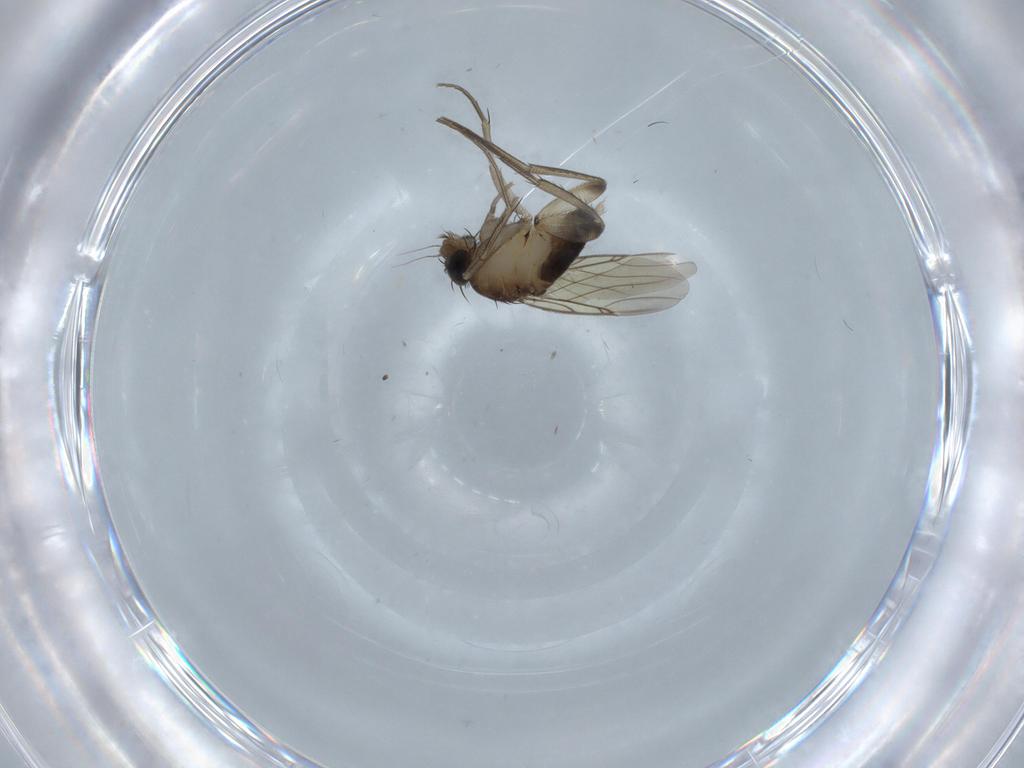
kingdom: Animalia
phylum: Arthropoda
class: Insecta
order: Diptera
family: Phoridae
